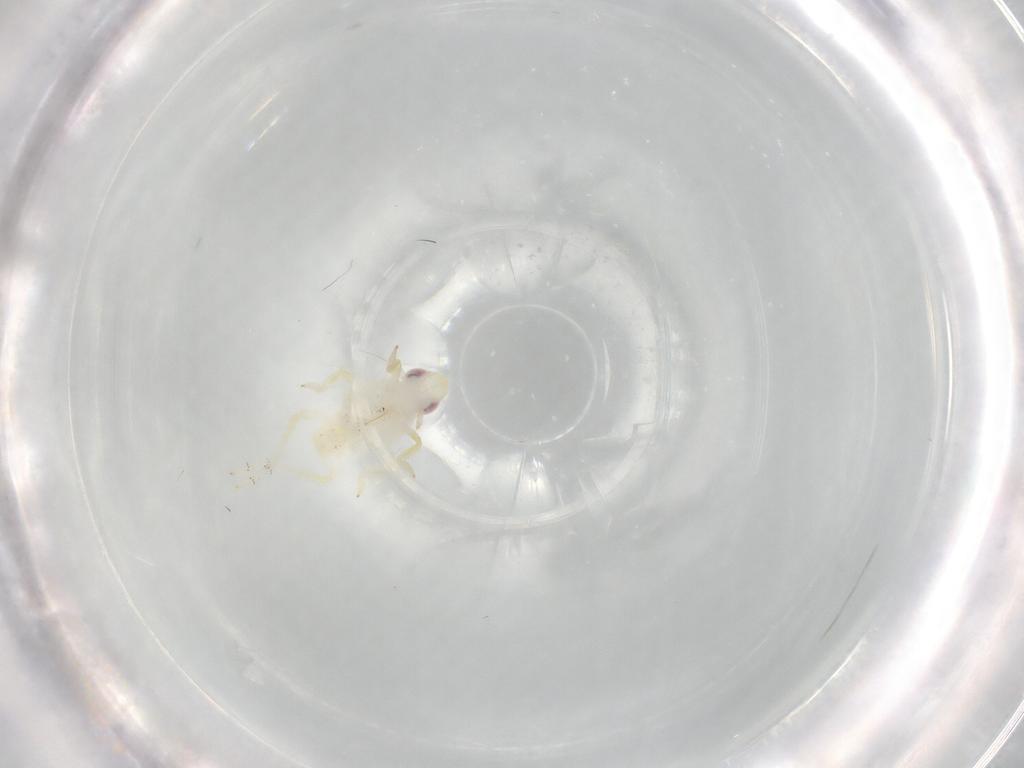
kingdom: Animalia
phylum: Arthropoda
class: Insecta
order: Hemiptera
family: Tropiduchidae
